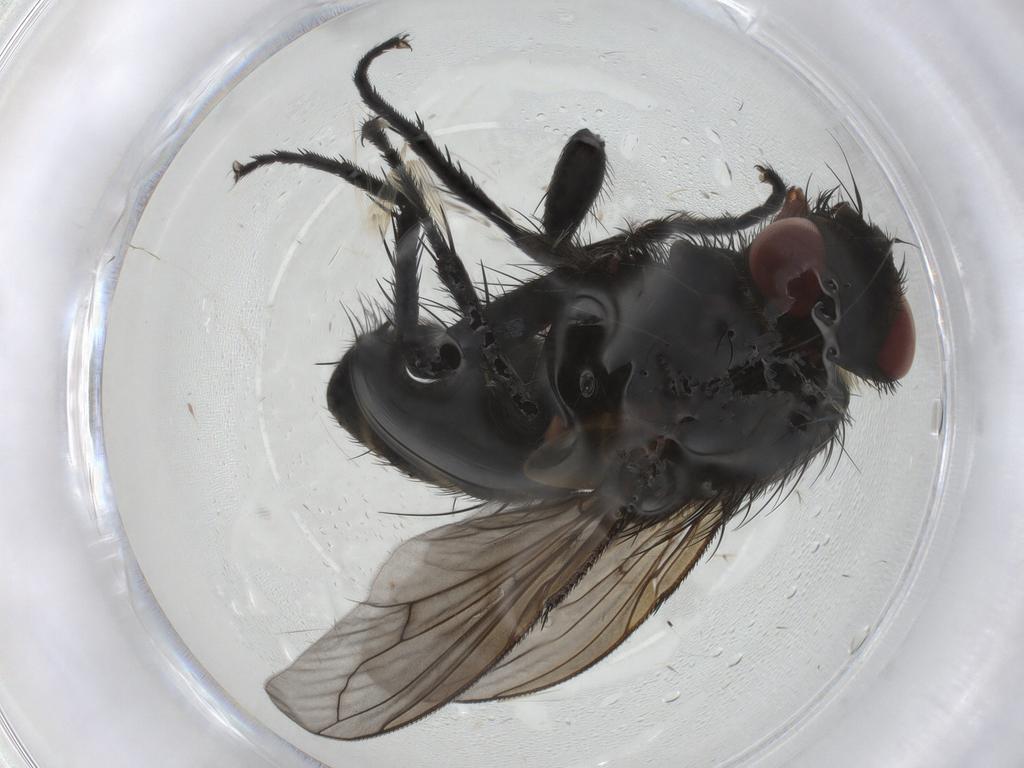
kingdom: Animalia
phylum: Arthropoda
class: Insecta
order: Diptera
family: Tachinidae
